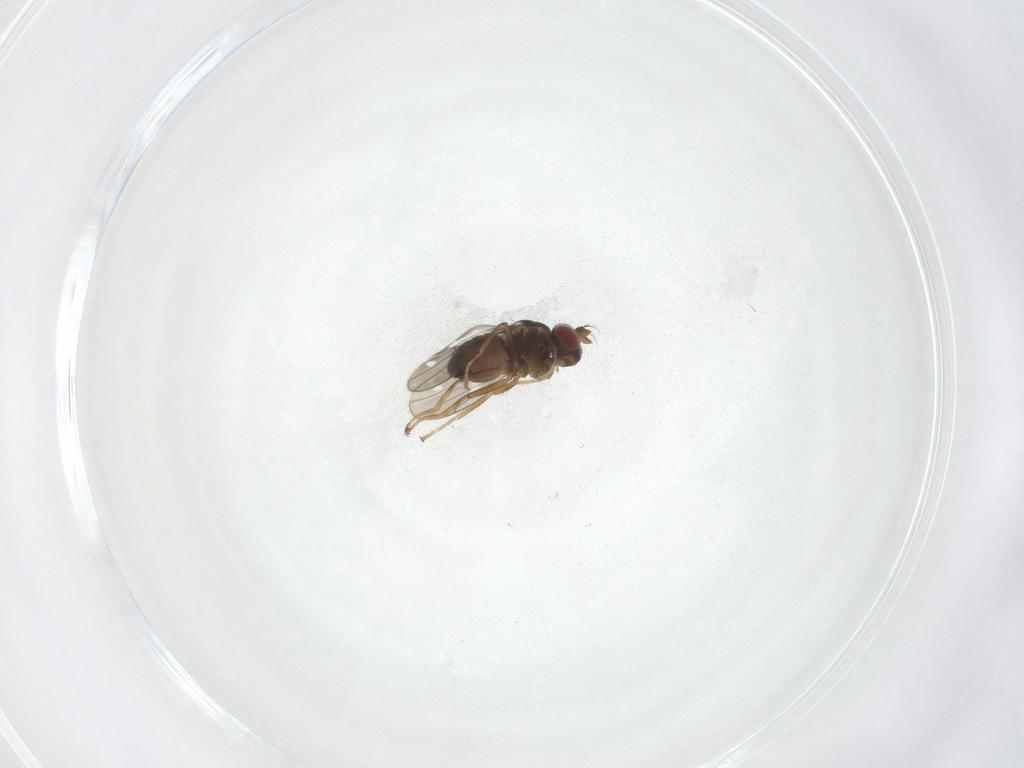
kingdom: Animalia
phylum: Arthropoda
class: Insecta
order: Diptera
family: Ephydridae
